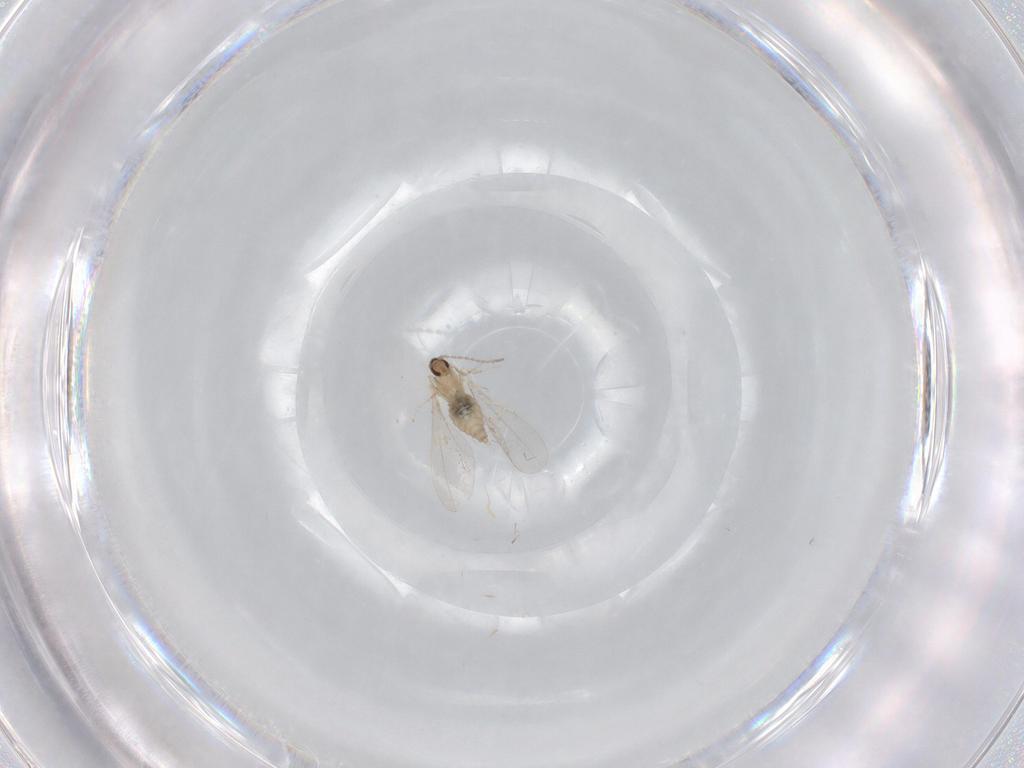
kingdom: Animalia
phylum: Arthropoda
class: Insecta
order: Diptera
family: Cecidomyiidae
